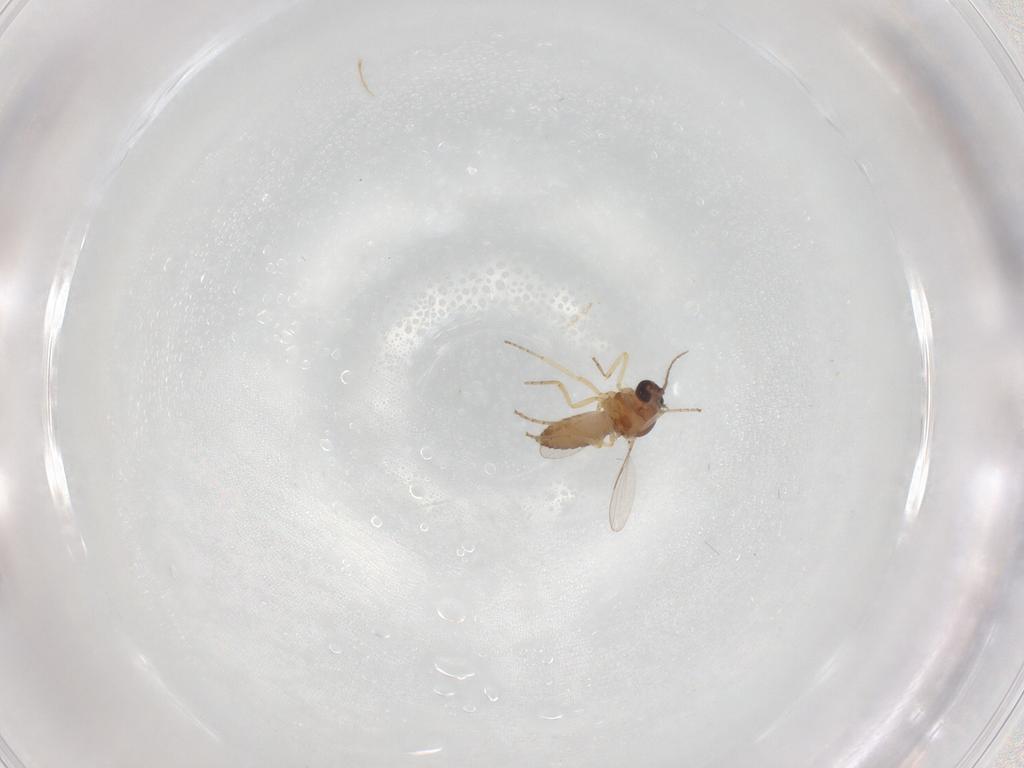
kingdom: Animalia
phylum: Arthropoda
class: Insecta
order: Diptera
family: Ceratopogonidae
